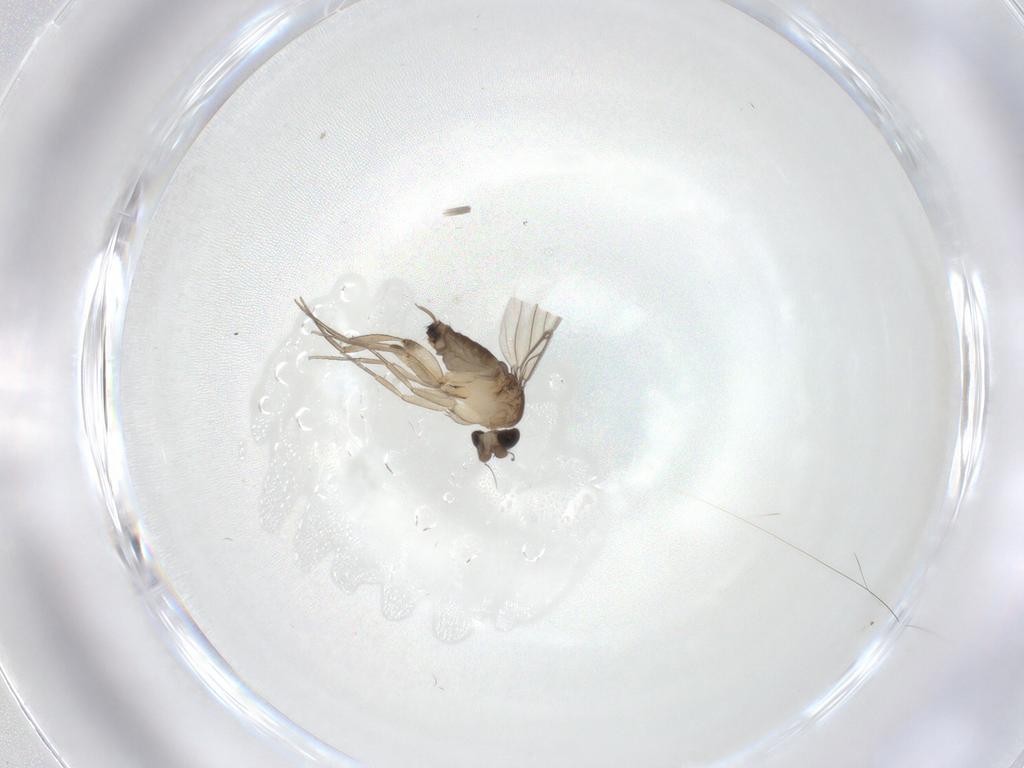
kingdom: Animalia
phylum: Arthropoda
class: Insecta
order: Diptera
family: Phoridae
